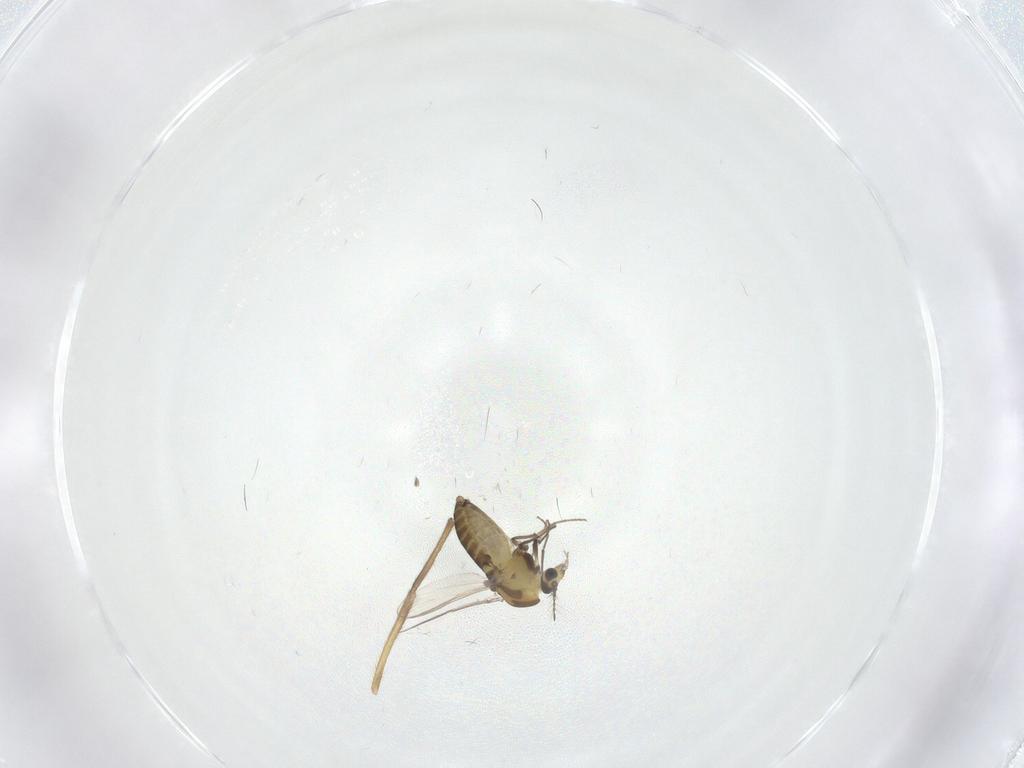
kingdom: Animalia
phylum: Arthropoda
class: Insecta
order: Diptera
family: Chironomidae
